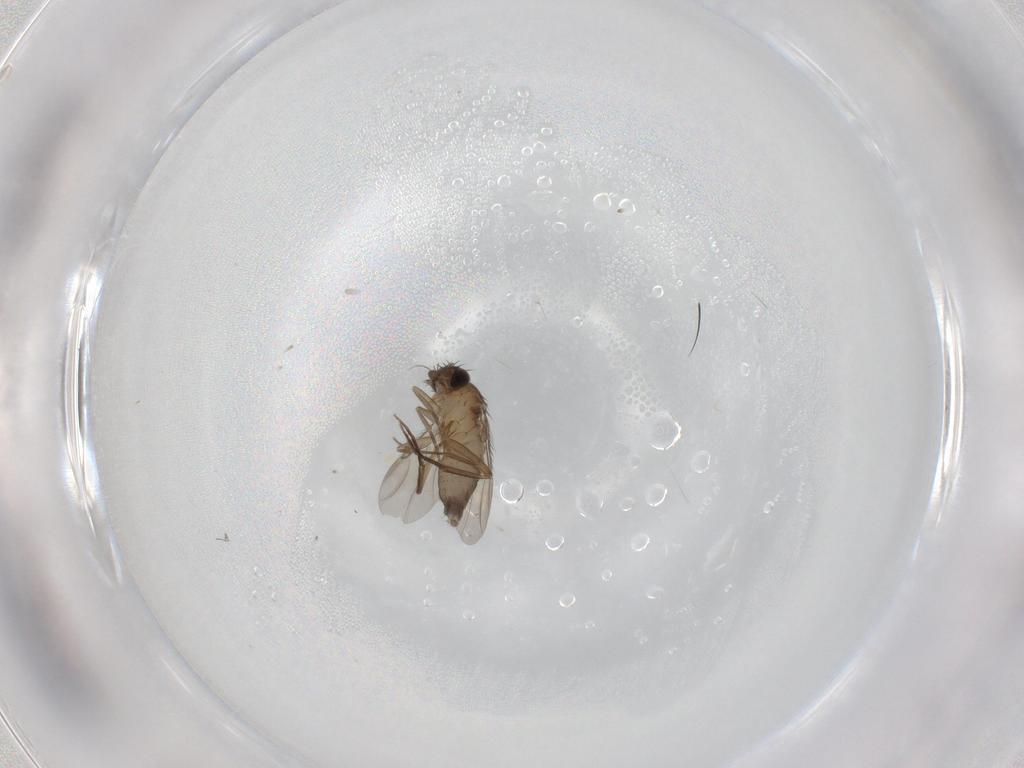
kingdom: Animalia
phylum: Arthropoda
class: Insecta
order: Diptera
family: Phoridae
